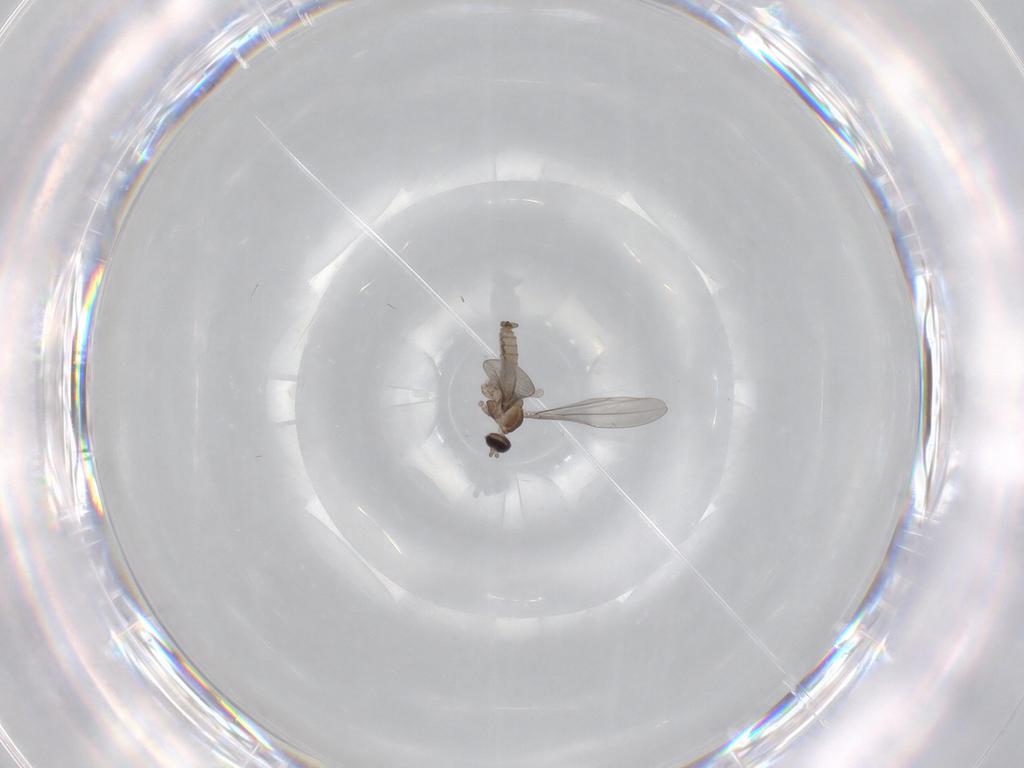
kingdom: Animalia
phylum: Arthropoda
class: Insecta
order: Diptera
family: Cecidomyiidae
